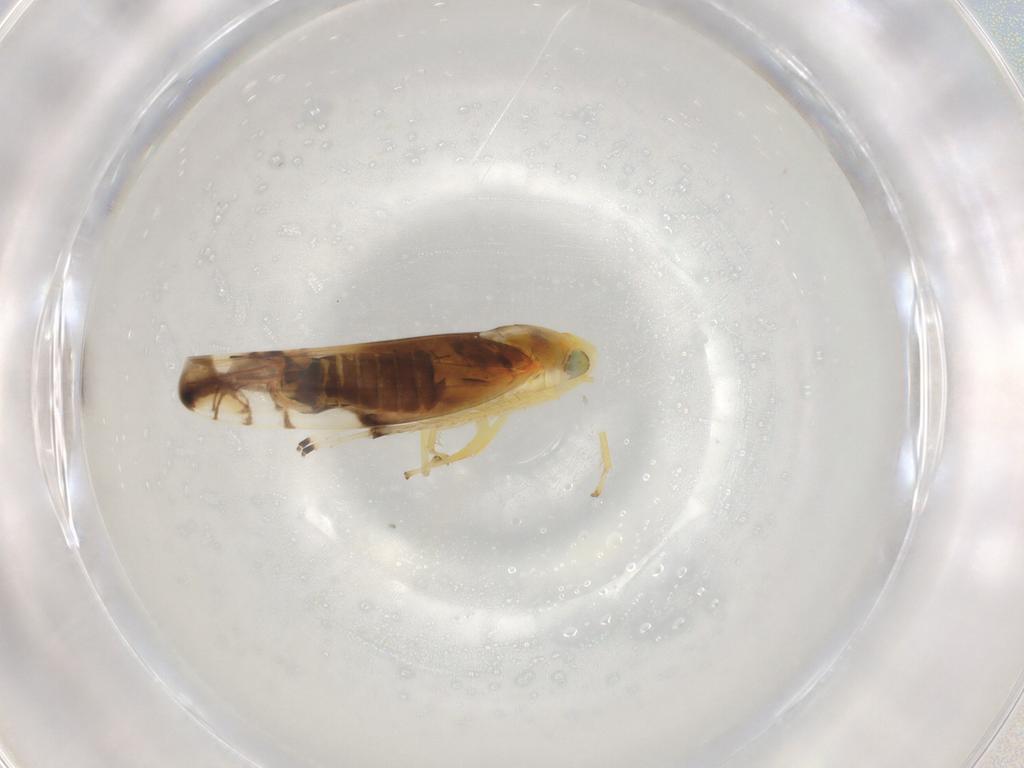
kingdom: Animalia
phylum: Arthropoda
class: Insecta
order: Hemiptera
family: Cicadellidae
